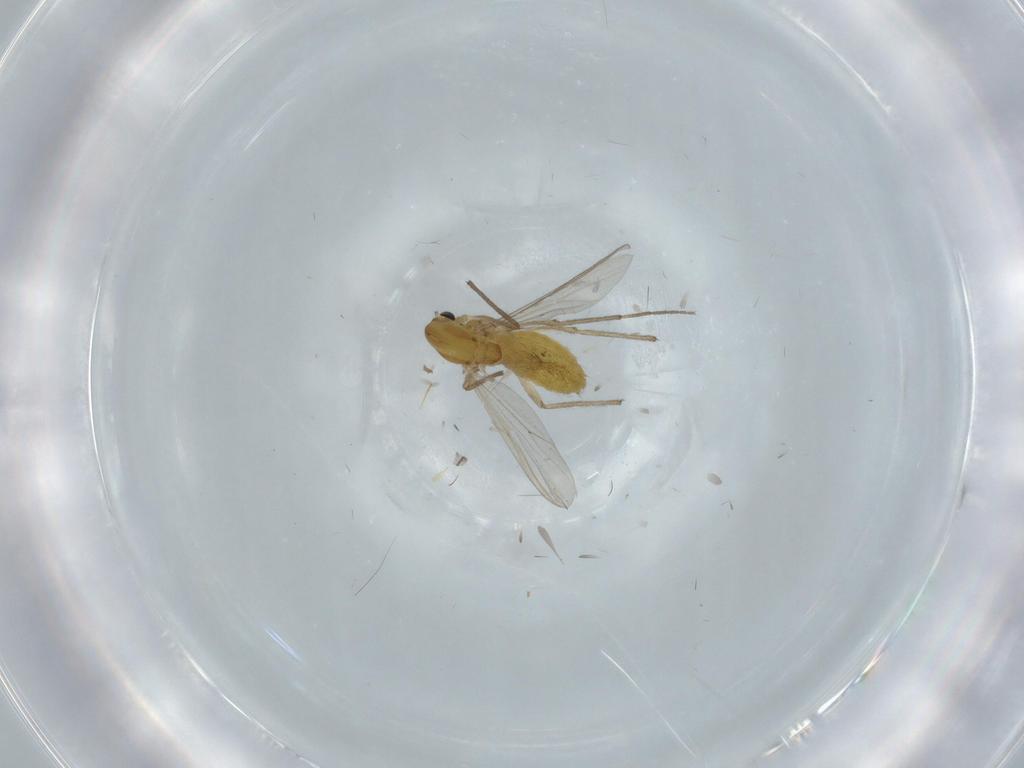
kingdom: Animalia
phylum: Arthropoda
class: Insecta
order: Diptera
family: Chironomidae
